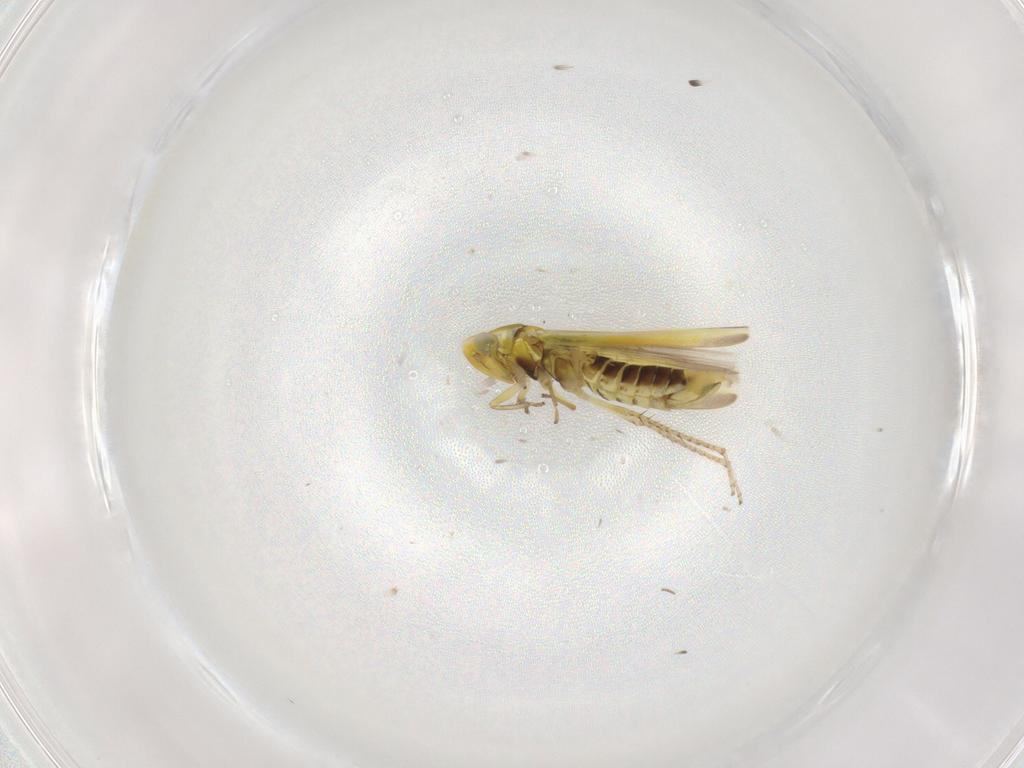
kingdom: Animalia
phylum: Arthropoda
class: Insecta
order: Hemiptera
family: Cicadellidae
